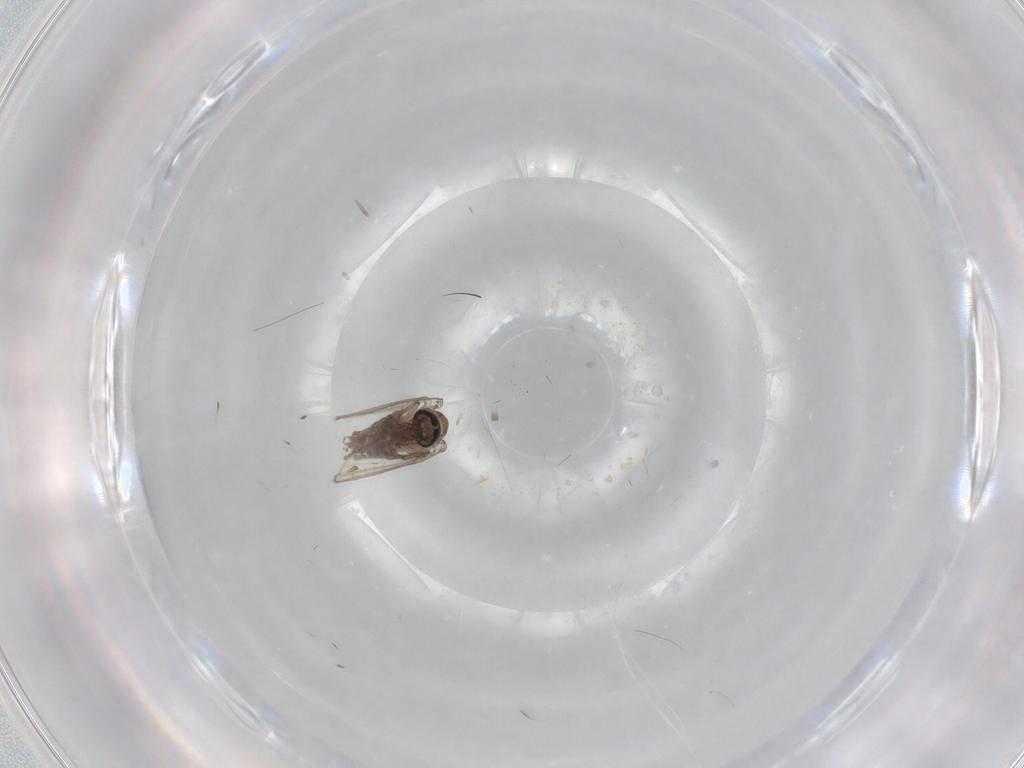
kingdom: Animalia
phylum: Arthropoda
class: Insecta
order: Diptera
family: Psychodidae
